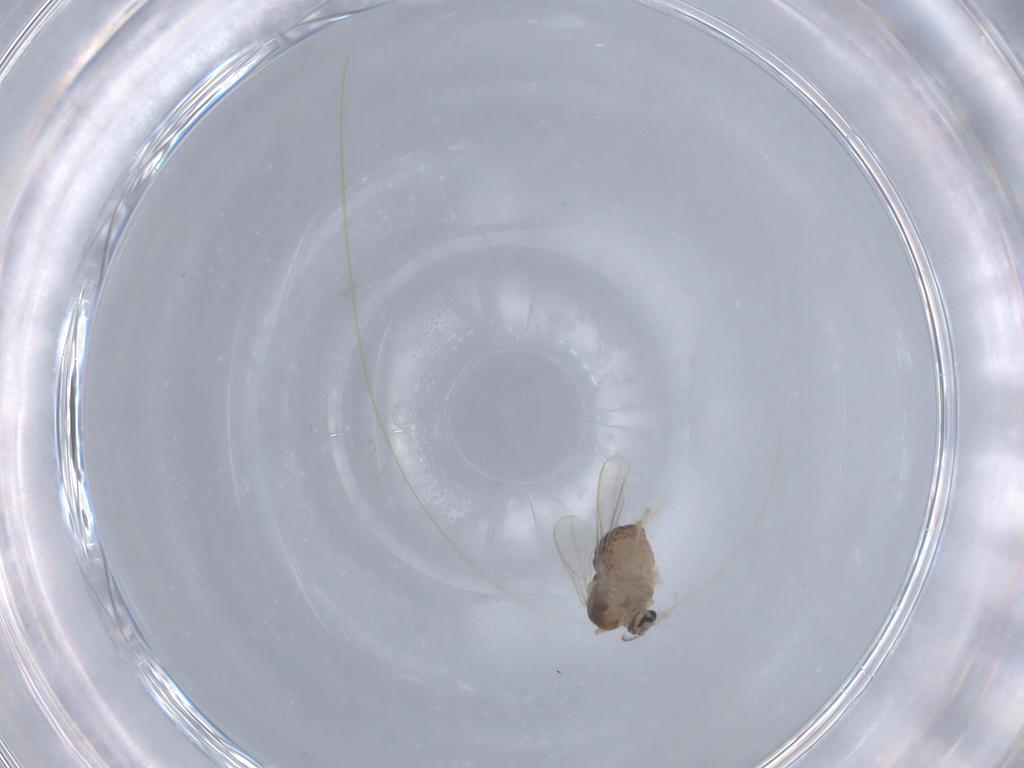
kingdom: Animalia
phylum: Arthropoda
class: Insecta
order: Diptera
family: Chironomidae
